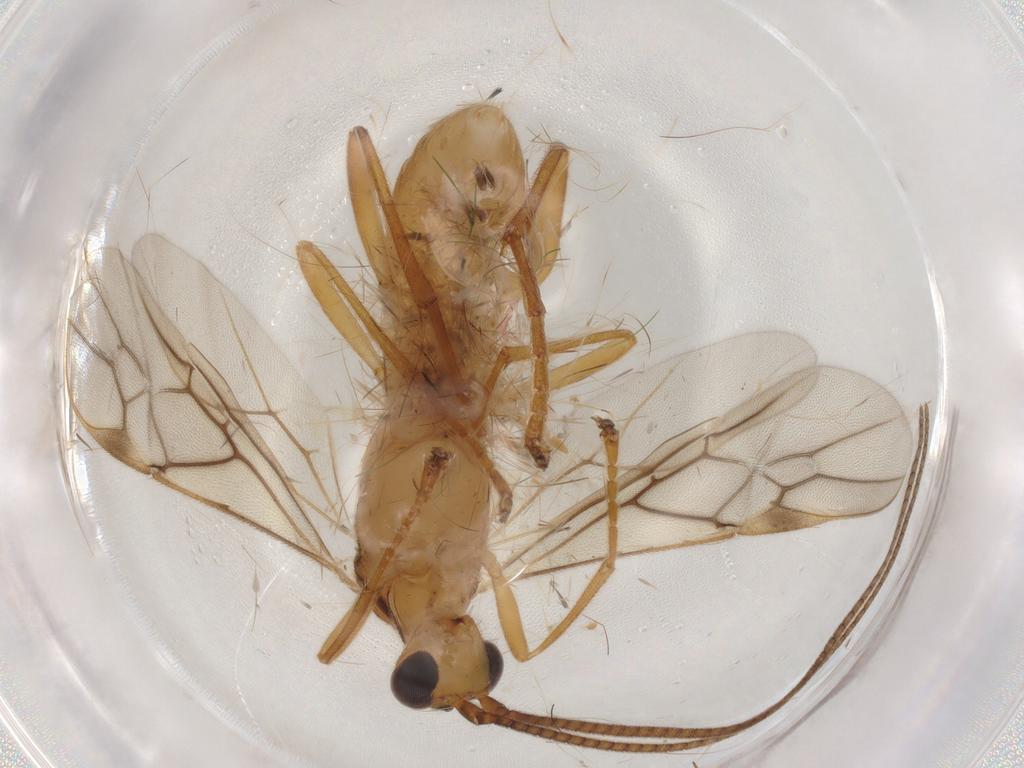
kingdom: Animalia
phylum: Arthropoda
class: Insecta
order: Hymenoptera
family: Braconidae
